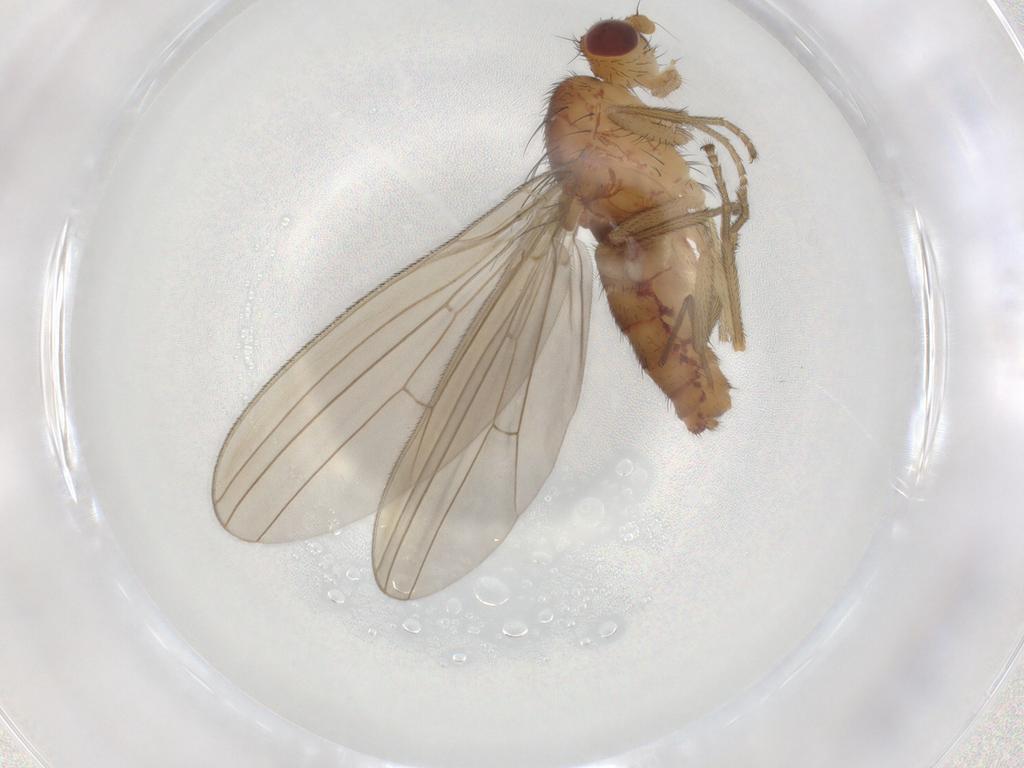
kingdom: Animalia
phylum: Arthropoda
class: Insecta
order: Diptera
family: Natalimyzidae
